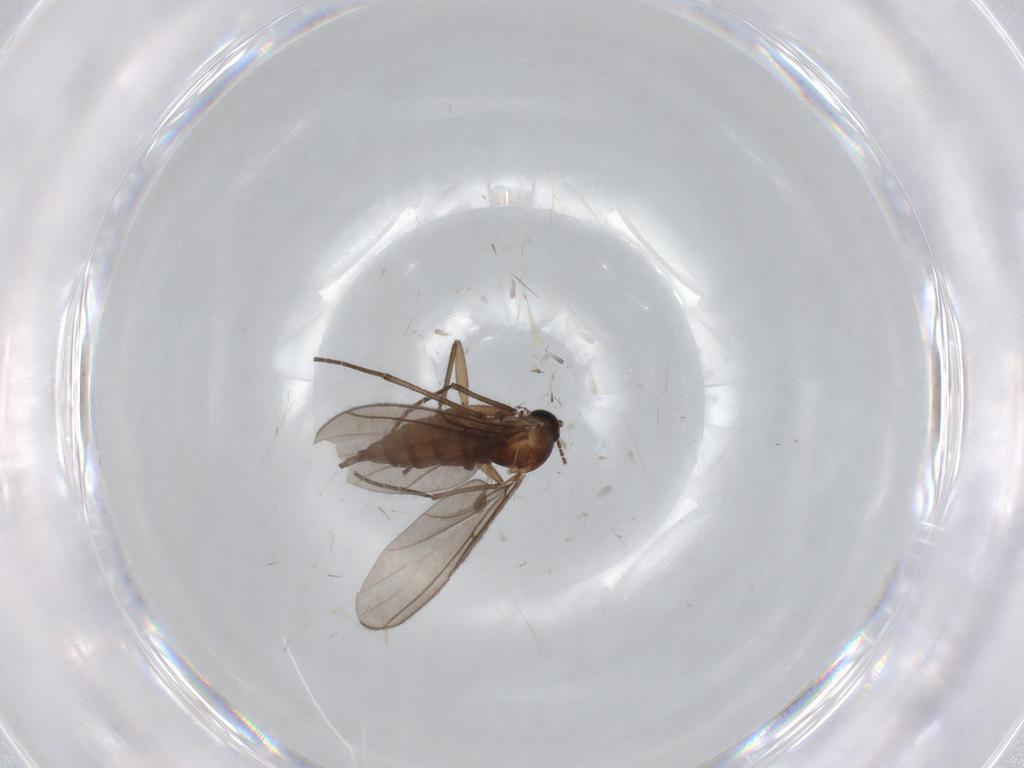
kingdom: Animalia
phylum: Arthropoda
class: Insecta
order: Diptera
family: Sciaridae
